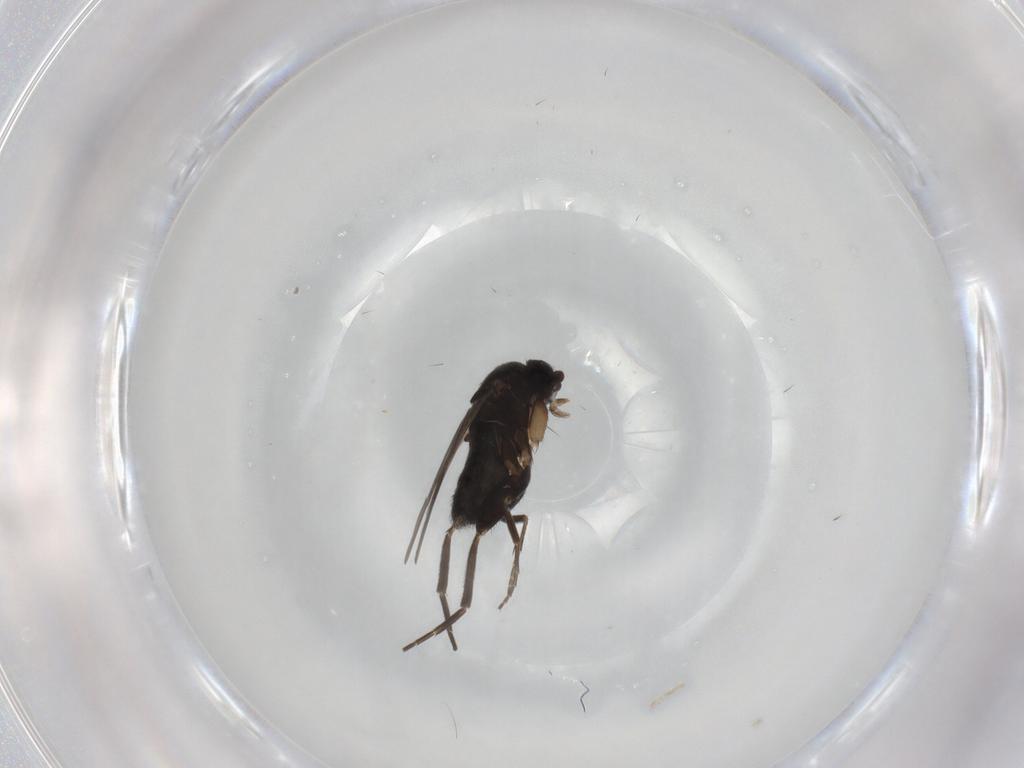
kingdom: Animalia
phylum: Arthropoda
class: Insecta
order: Diptera
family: Phoridae
